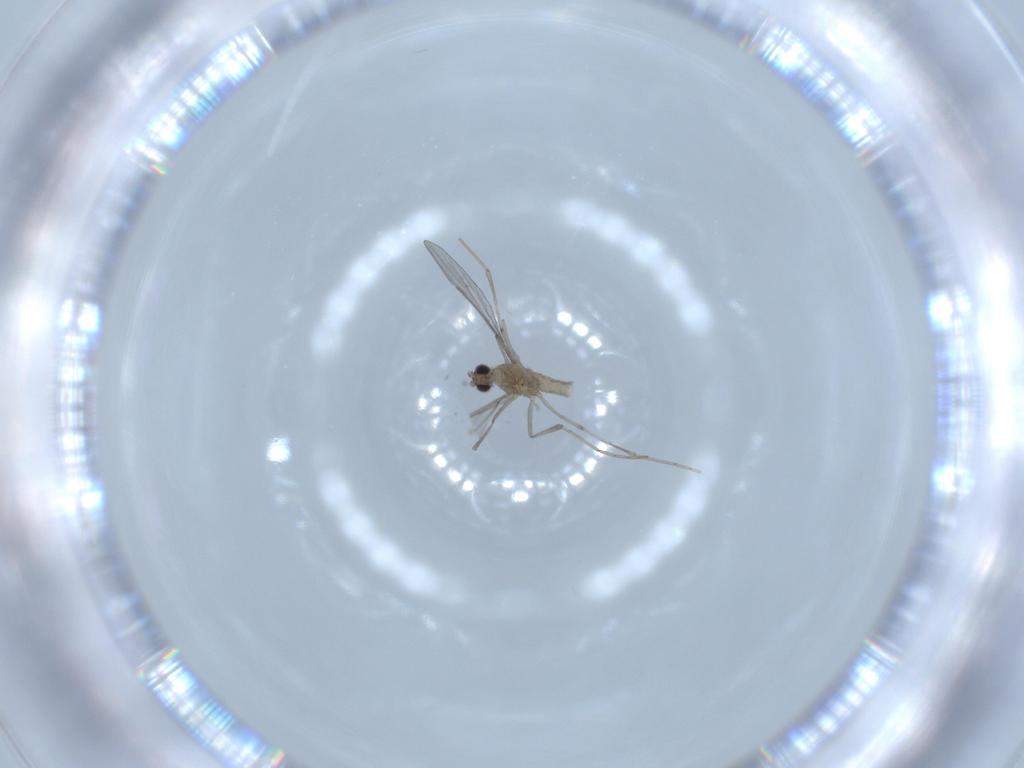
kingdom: Animalia
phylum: Arthropoda
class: Insecta
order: Diptera
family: Cecidomyiidae
